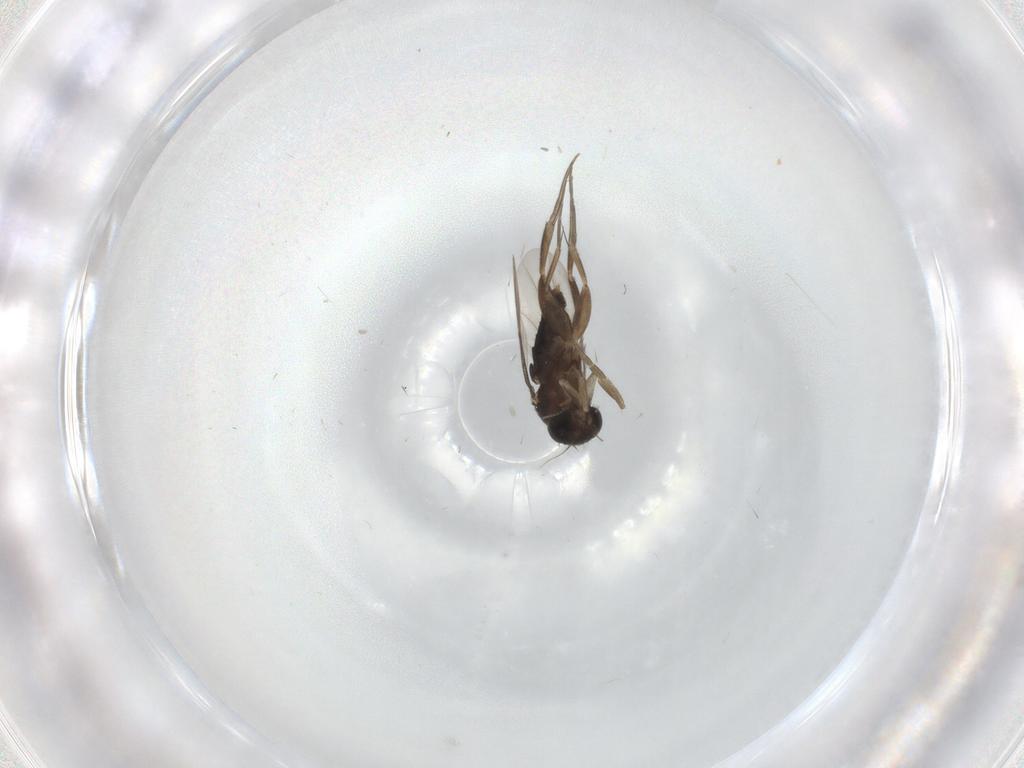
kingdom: Animalia
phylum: Arthropoda
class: Insecta
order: Diptera
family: Phoridae
